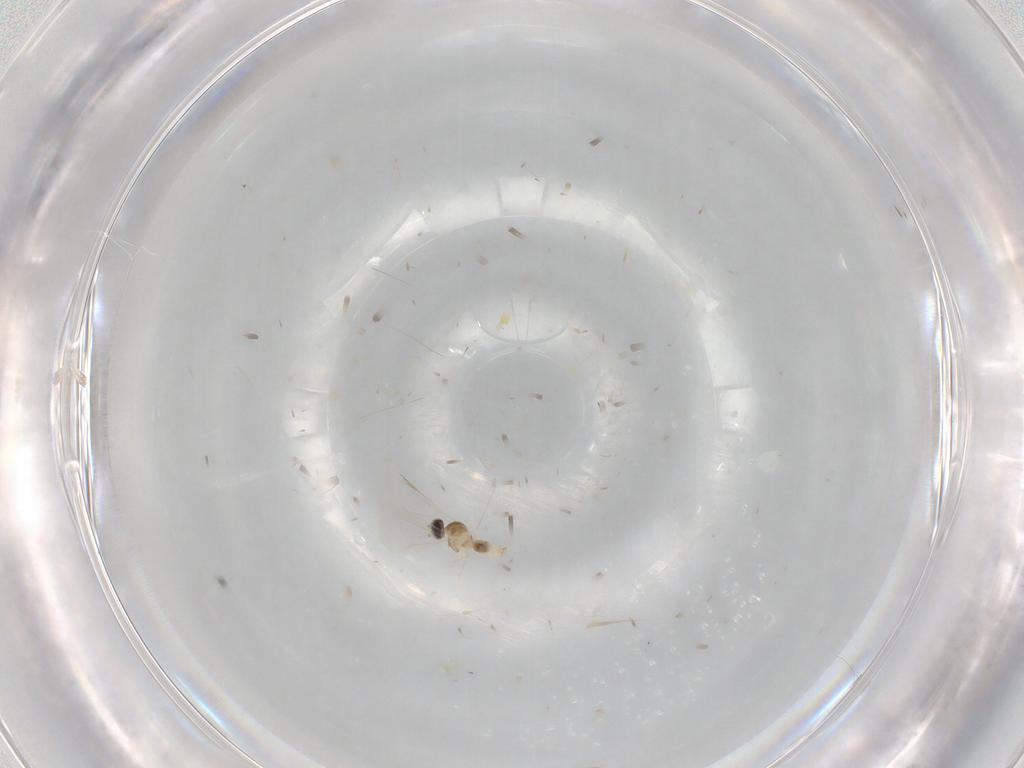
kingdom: Animalia
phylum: Arthropoda
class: Insecta
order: Diptera
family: Cecidomyiidae
